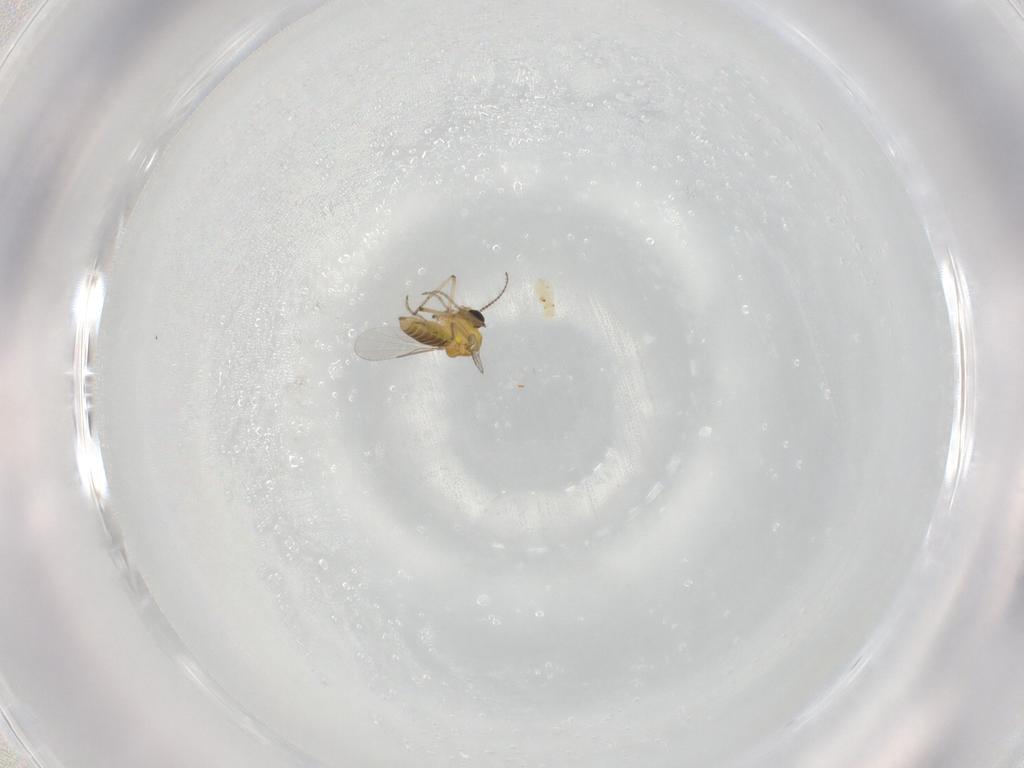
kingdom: Animalia
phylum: Arthropoda
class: Insecta
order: Diptera
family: Ceratopogonidae
